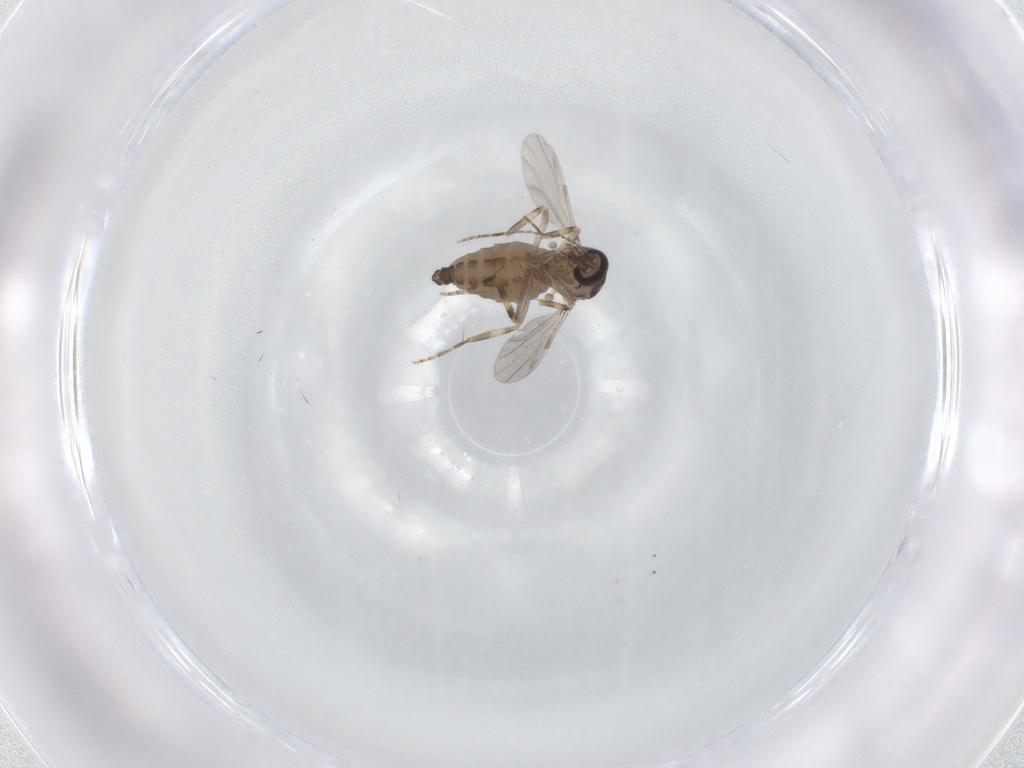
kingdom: Animalia
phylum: Arthropoda
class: Insecta
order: Diptera
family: Ceratopogonidae
